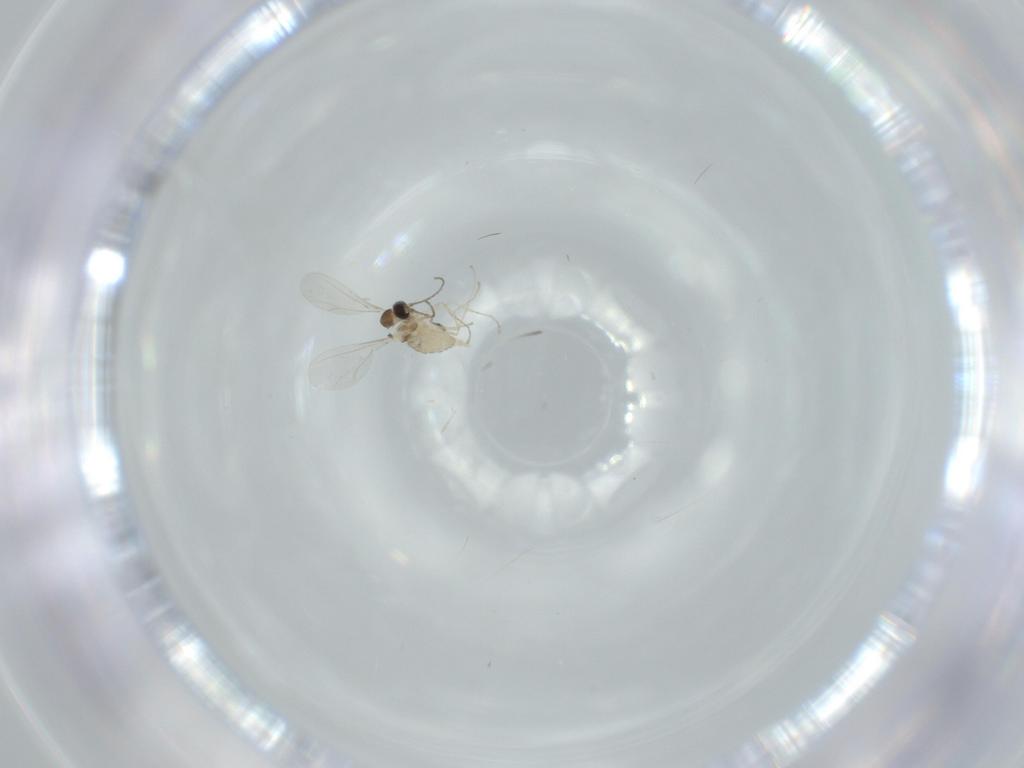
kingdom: Animalia
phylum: Arthropoda
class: Insecta
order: Diptera
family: Cecidomyiidae
